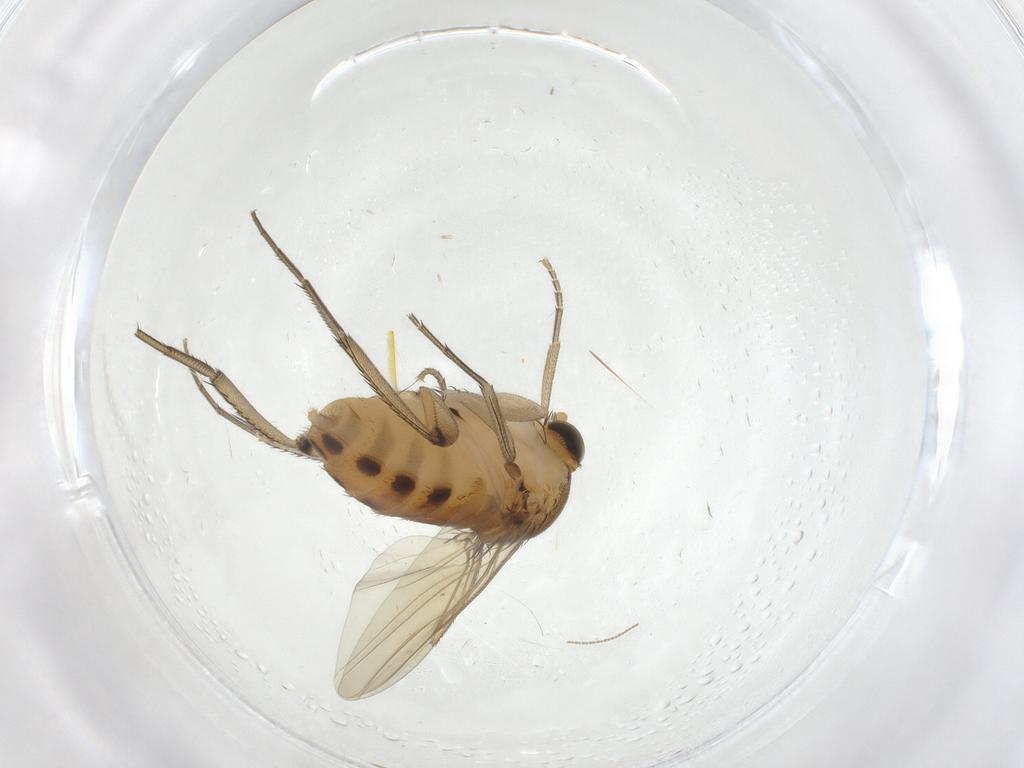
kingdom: Animalia
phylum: Arthropoda
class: Insecta
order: Diptera
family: Phoridae
